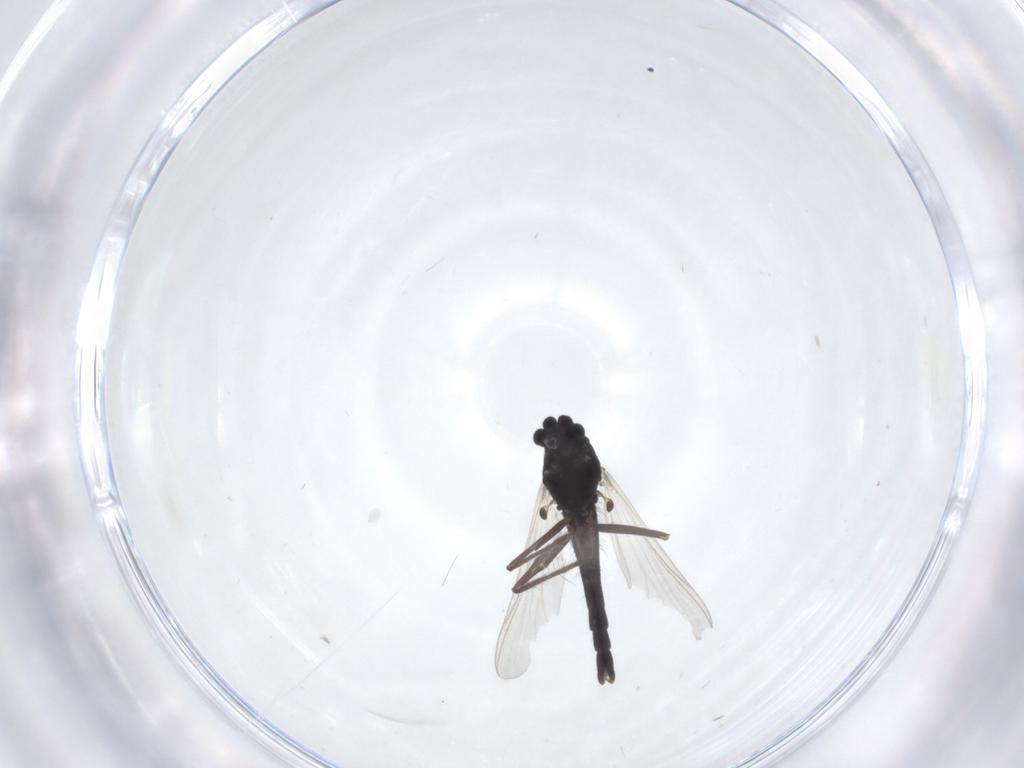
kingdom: Animalia
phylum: Arthropoda
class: Insecta
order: Diptera
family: Chironomidae
